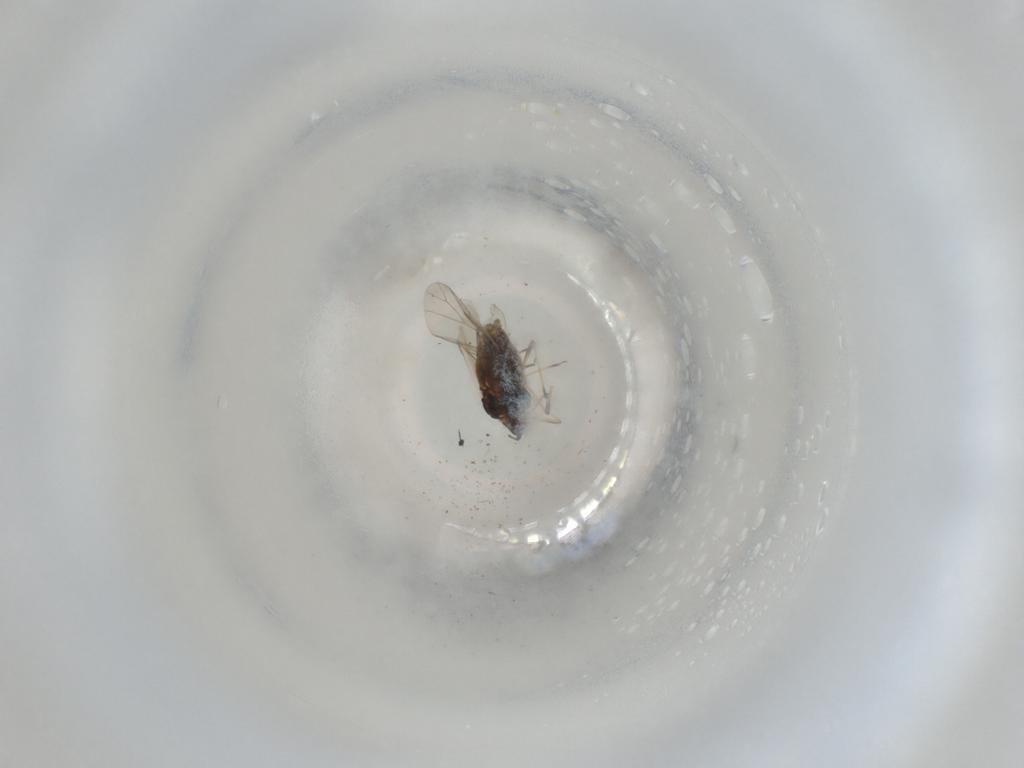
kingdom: Animalia
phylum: Arthropoda
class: Insecta
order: Hemiptera
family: Aphididae
